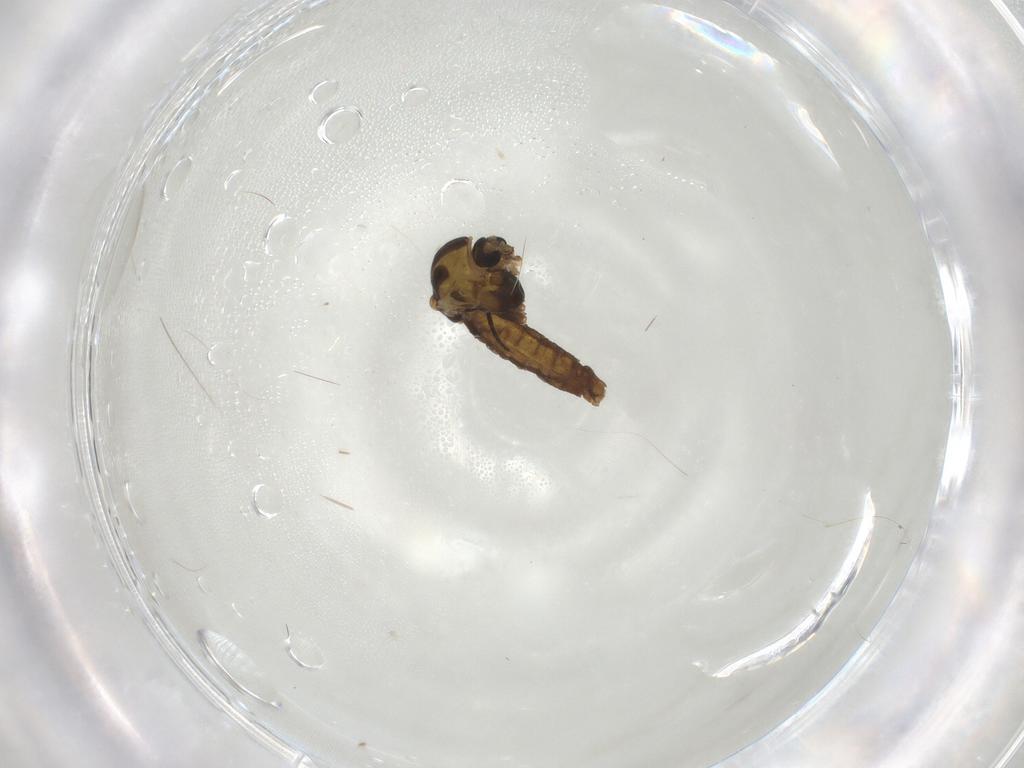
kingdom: Animalia
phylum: Arthropoda
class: Insecta
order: Diptera
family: Chironomidae
